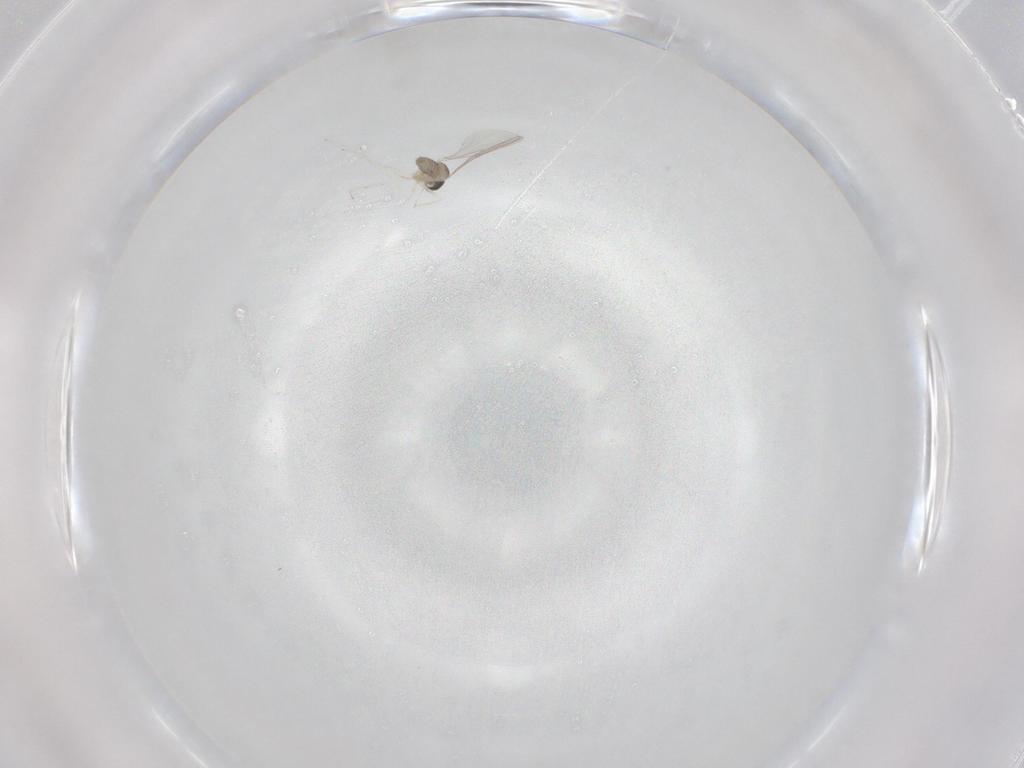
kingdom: Animalia
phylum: Arthropoda
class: Insecta
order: Diptera
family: Cecidomyiidae
